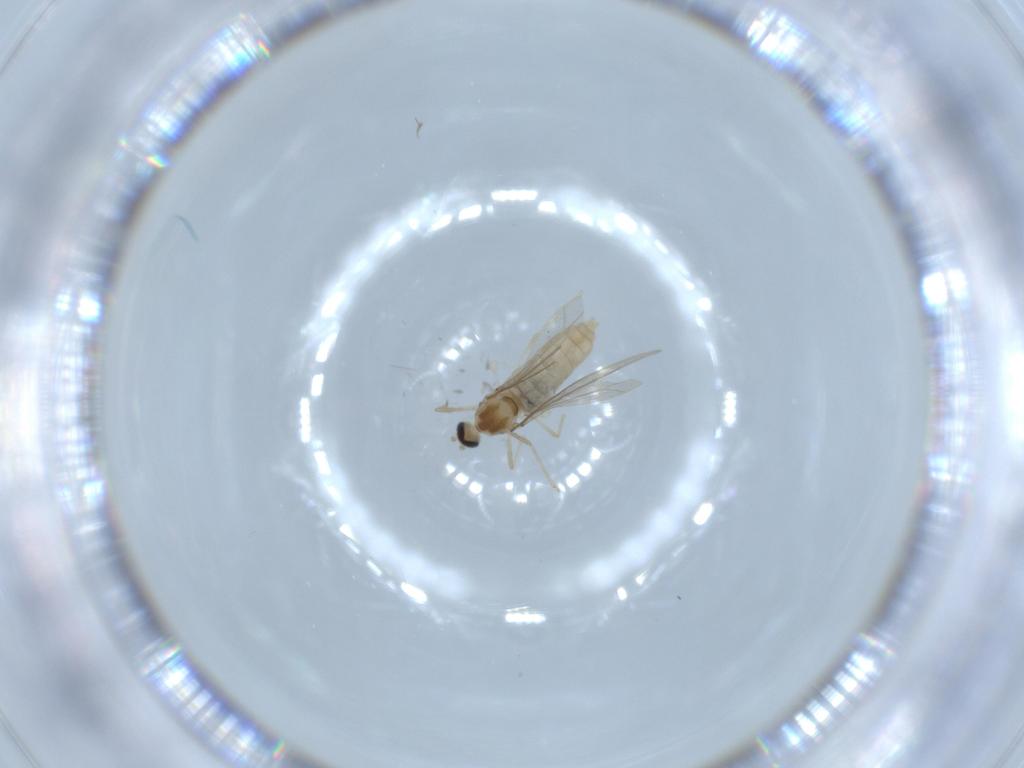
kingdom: Animalia
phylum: Arthropoda
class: Insecta
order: Diptera
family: Cecidomyiidae
